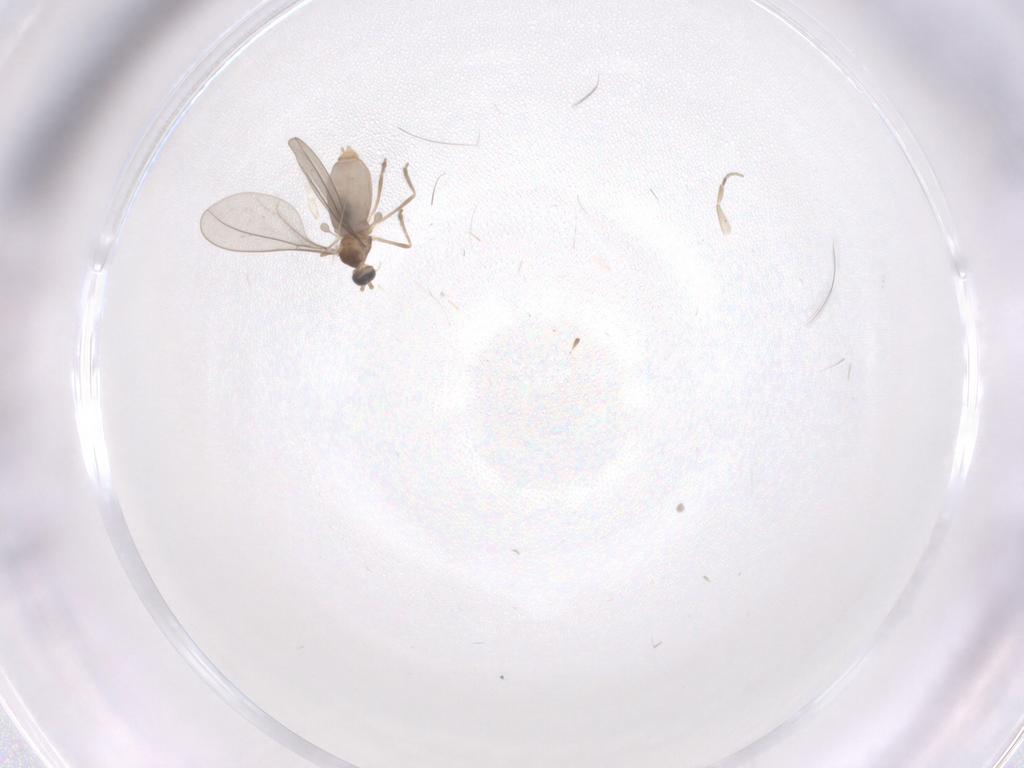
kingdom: Animalia
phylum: Arthropoda
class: Insecta
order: Diptera
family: Phoridae
